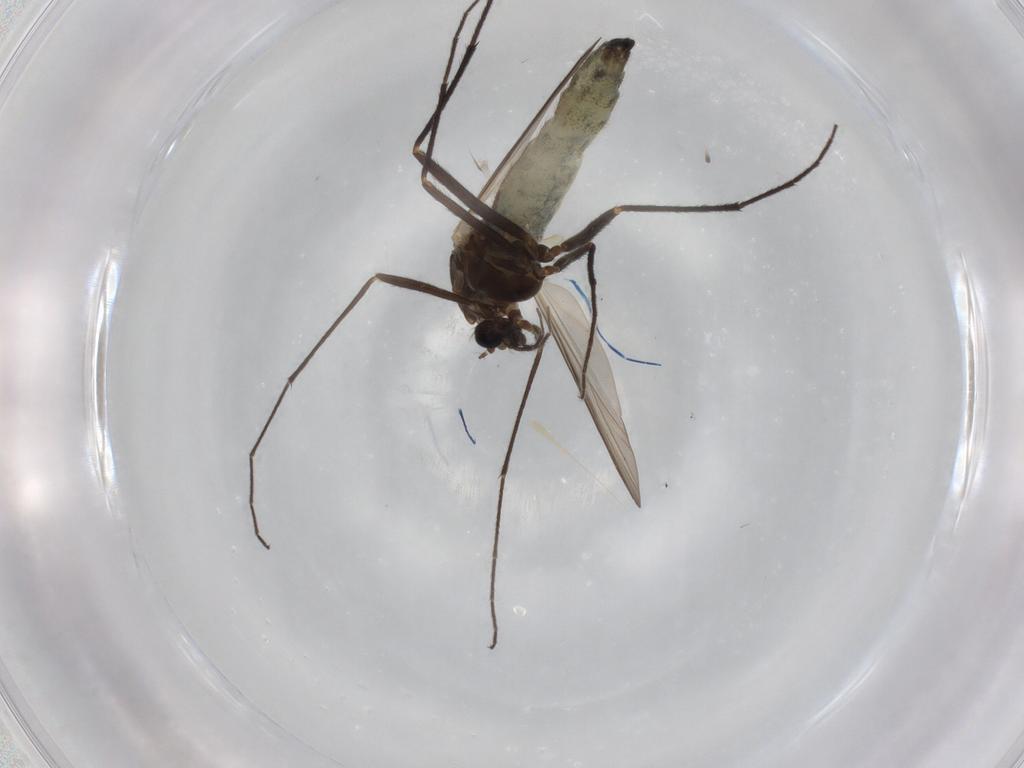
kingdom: Animalia
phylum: Arthropoda
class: Insecta
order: Diptera
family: Chironomidae
